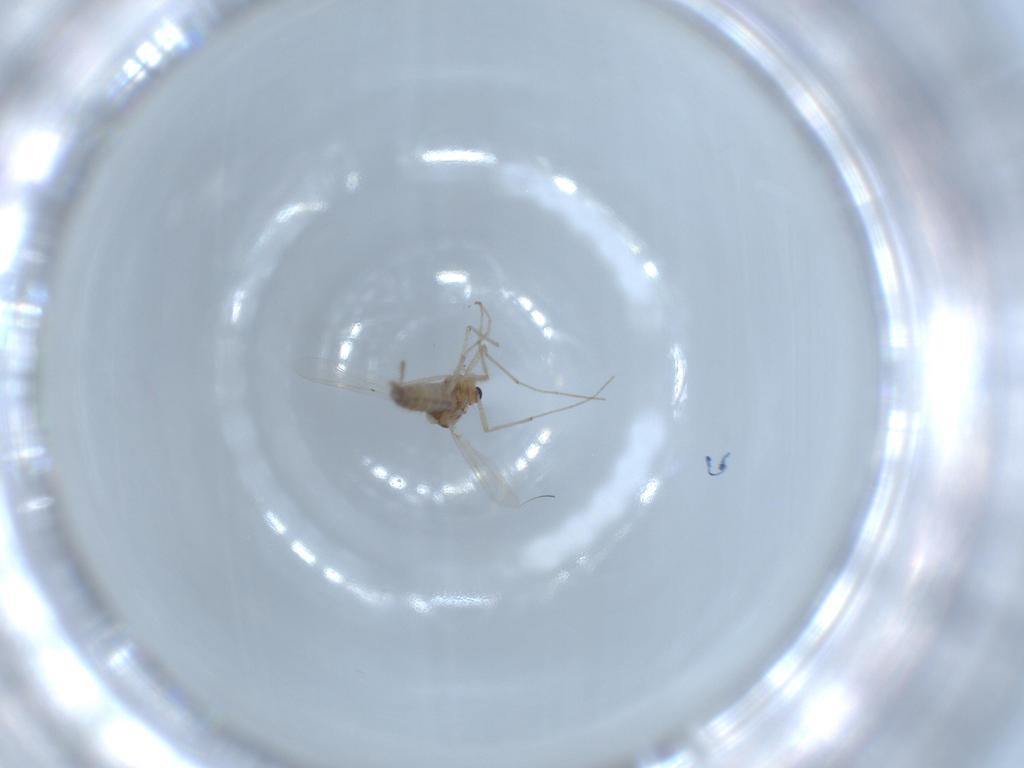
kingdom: Animalia
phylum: Arthropoda
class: Insecta
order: Diptera
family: Chironomidae
